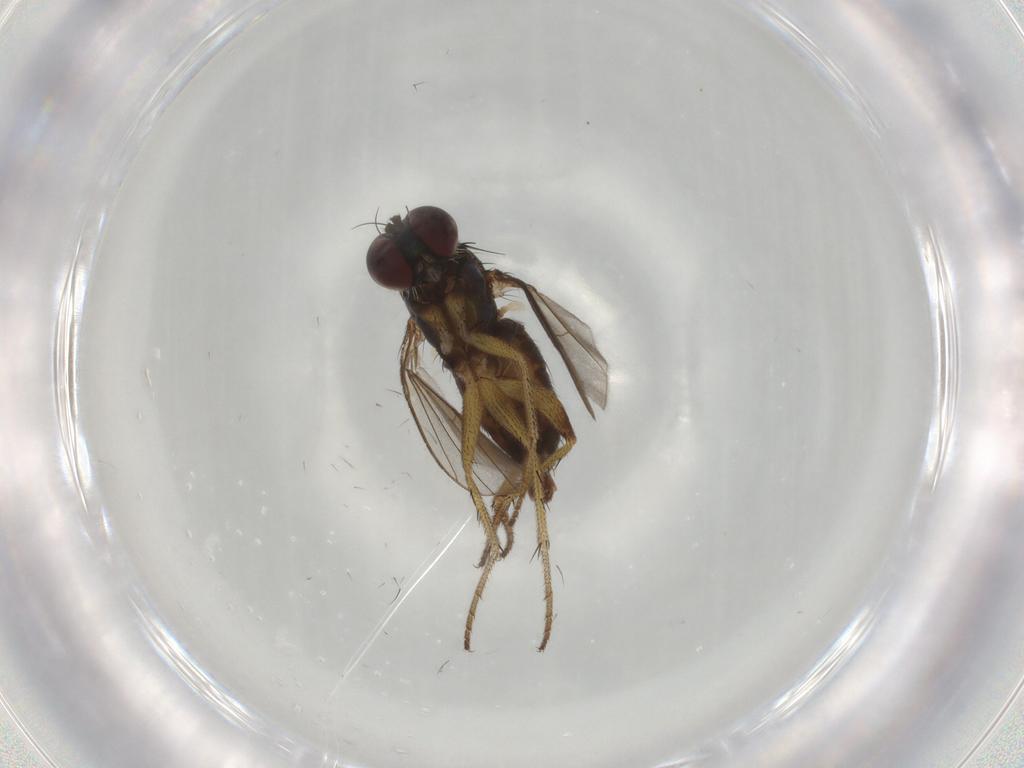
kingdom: Animalia
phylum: Arthropoda
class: Insecta
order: Diptera
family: Dolichopodidae
